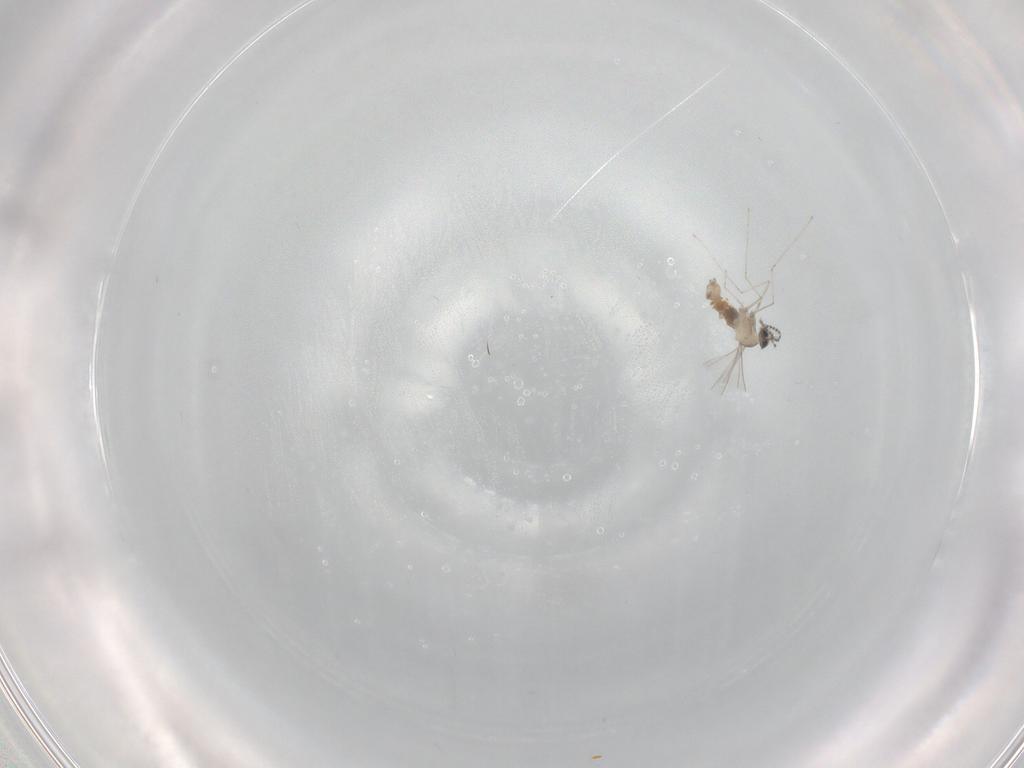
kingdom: Animalia
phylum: Arthropoda
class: Insecta
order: Diptera
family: Cecidomyiidae
